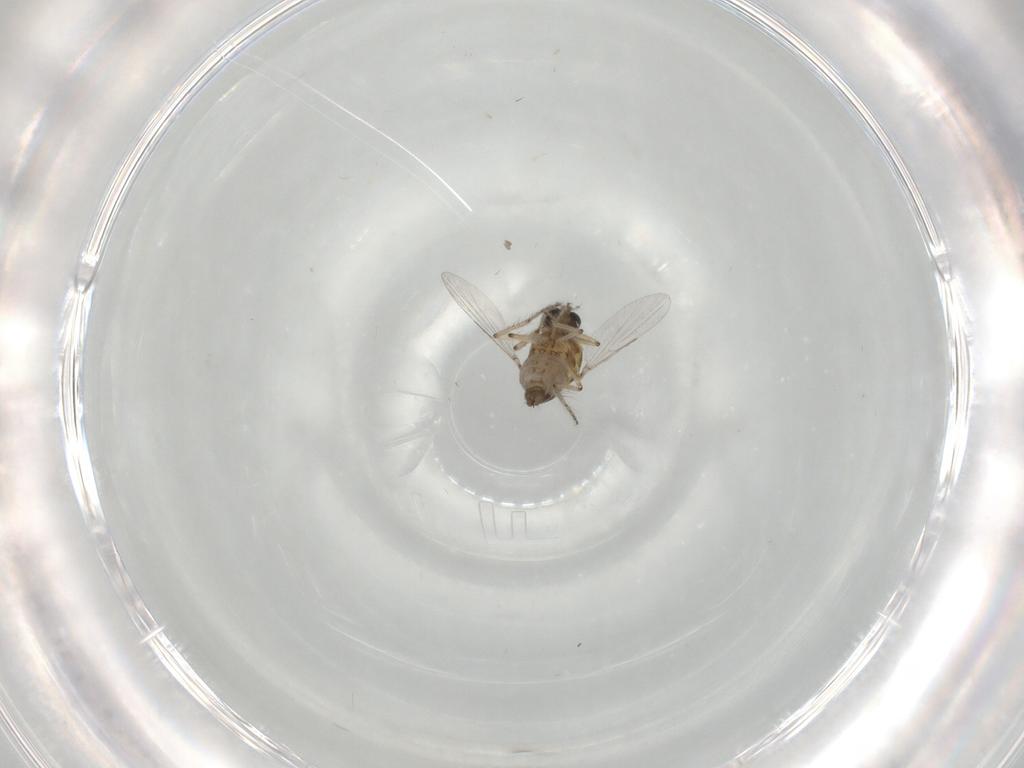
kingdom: Animalia
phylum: Arthropoda
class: Insecta
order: Diptera
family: Ceratopogonidae
